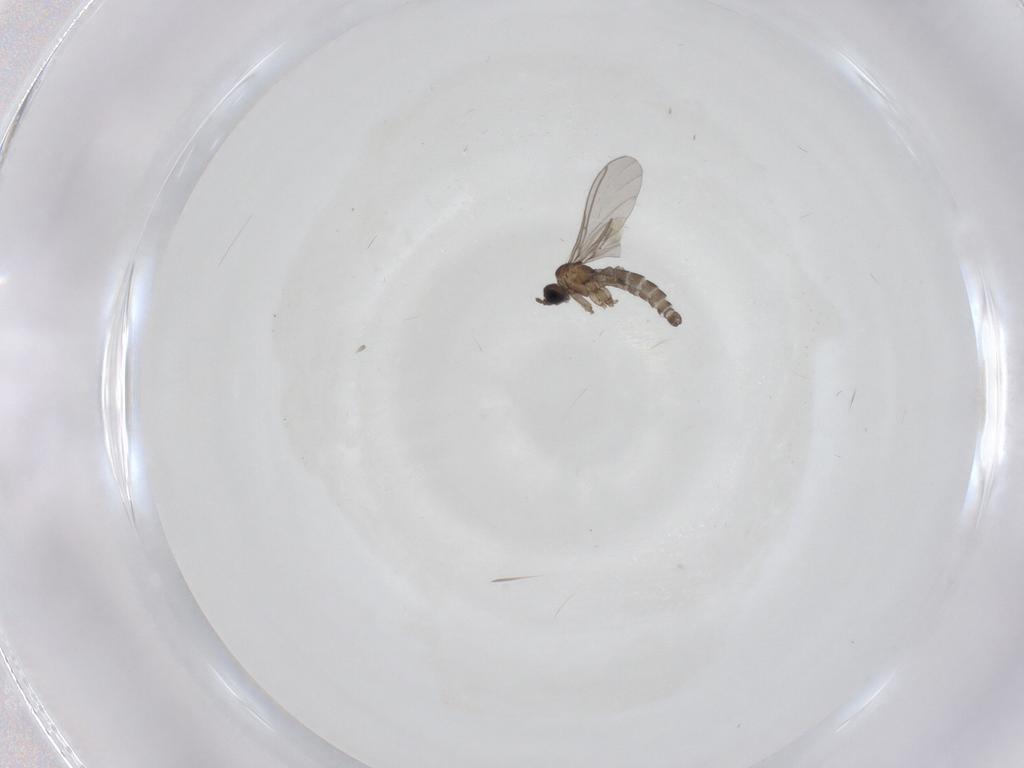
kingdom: Animalia
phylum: Arthropoda
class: Insecta
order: Diptera
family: Sciaridae
